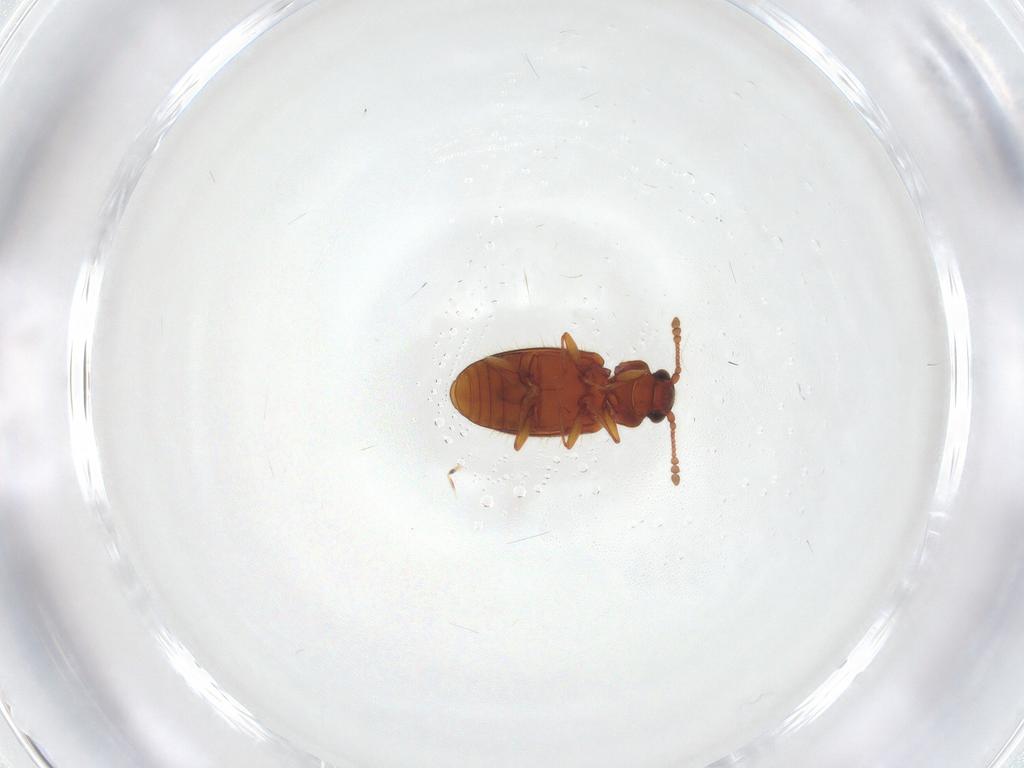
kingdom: Animalia
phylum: Arthropoda
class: Insecta
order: Coleoptera
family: Cryptophagidae
